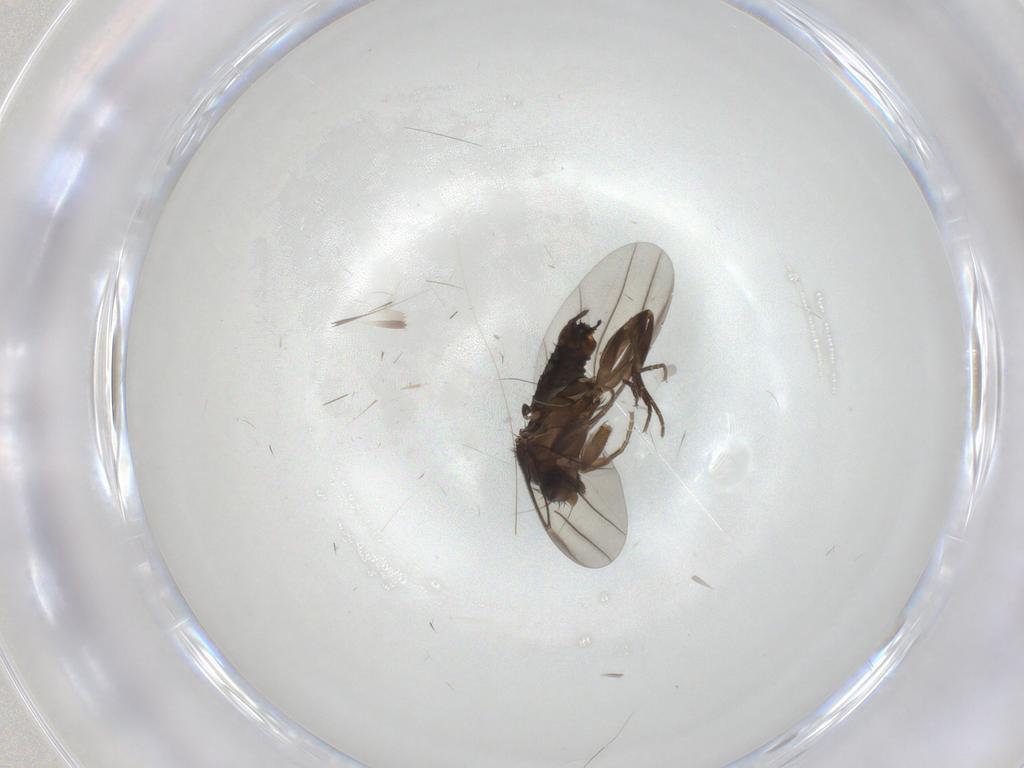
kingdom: Animalia
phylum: Arthropoda
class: Insecta
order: Diptera
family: Phoridae
